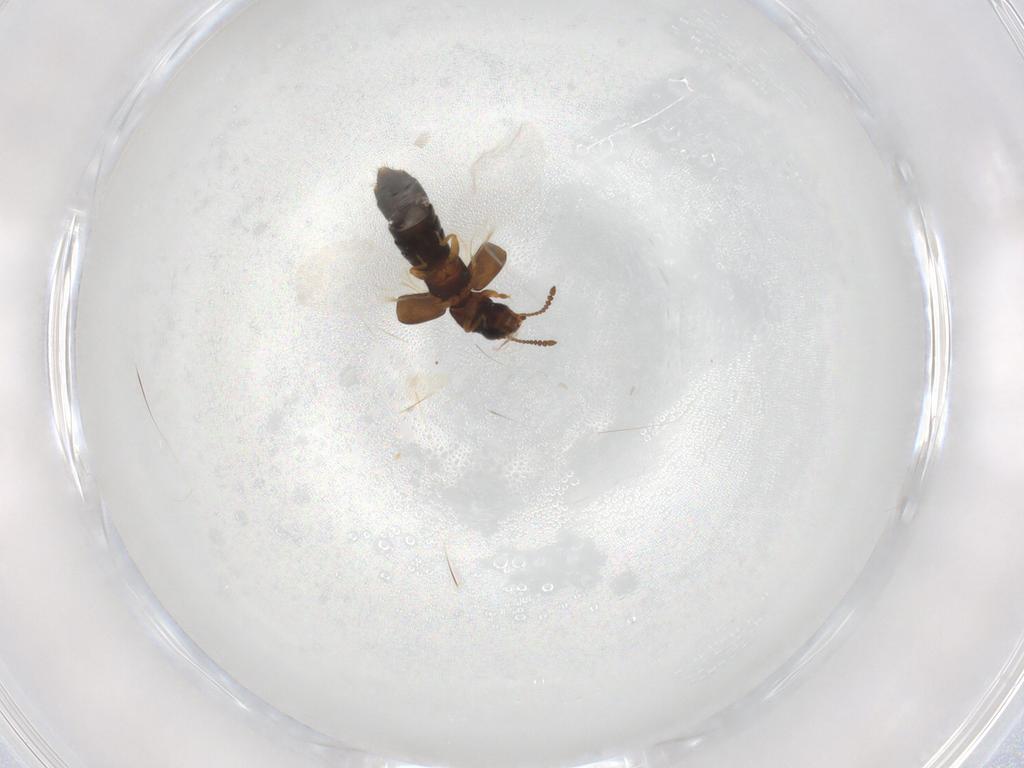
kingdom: Animalia
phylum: Arthropoda
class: Insecta
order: Coleoptera
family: Staphylinidae
